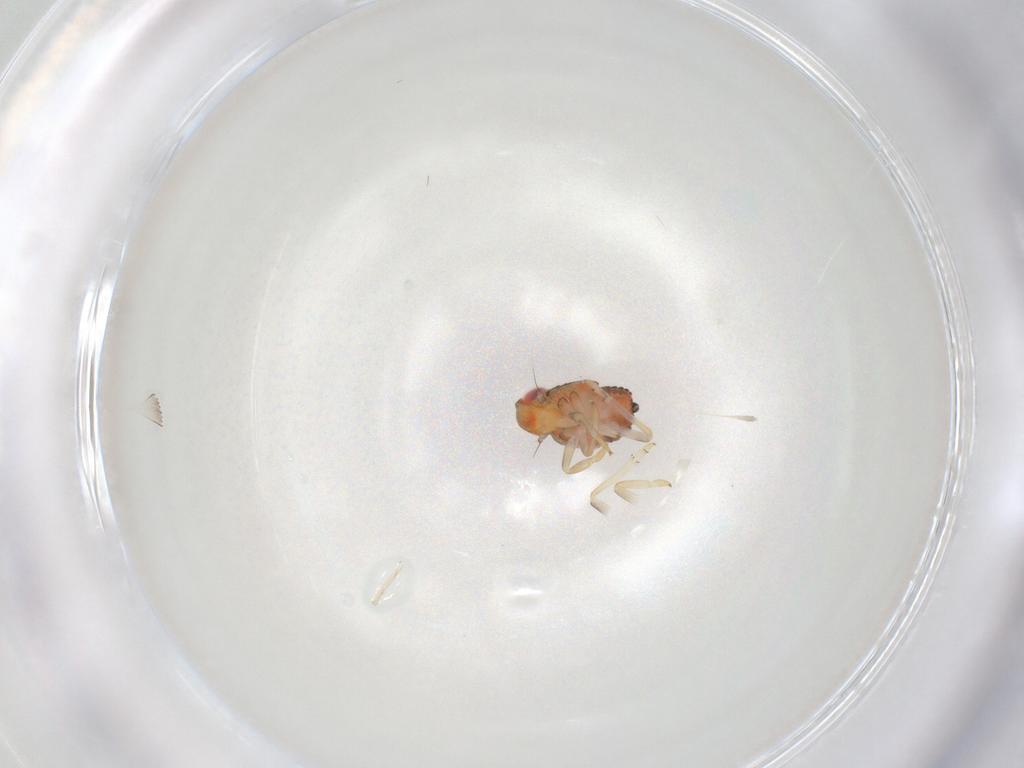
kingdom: Animalia
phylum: Arthropoda
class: Insecta
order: Hemiptera
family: Issidae
